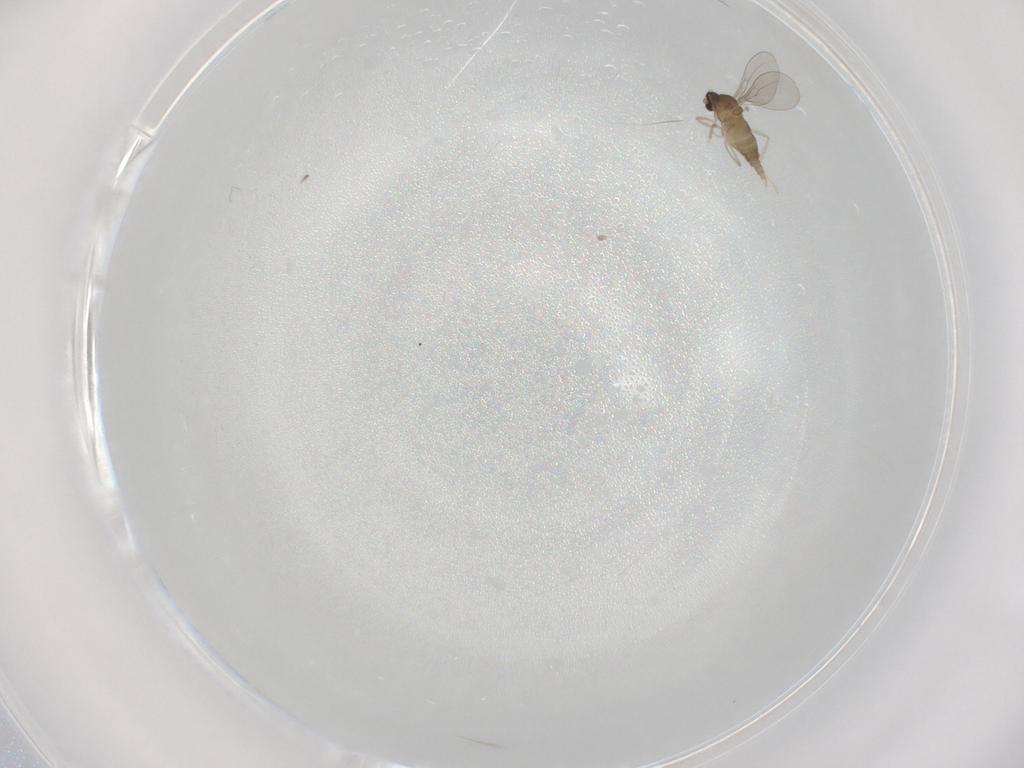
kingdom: Animalia
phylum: Arthropoda
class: Insecta
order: Diptera
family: Cecidomyiidae
